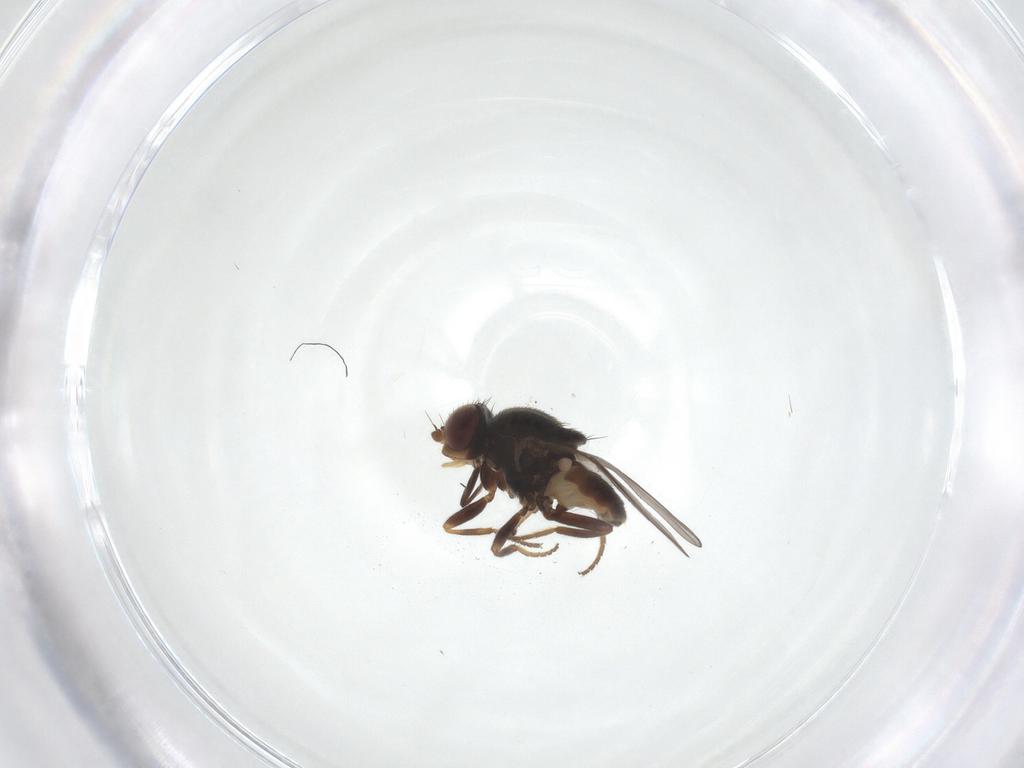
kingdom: Animalia
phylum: Arthropoda
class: Insecta
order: Diptera
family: Chloropidae
